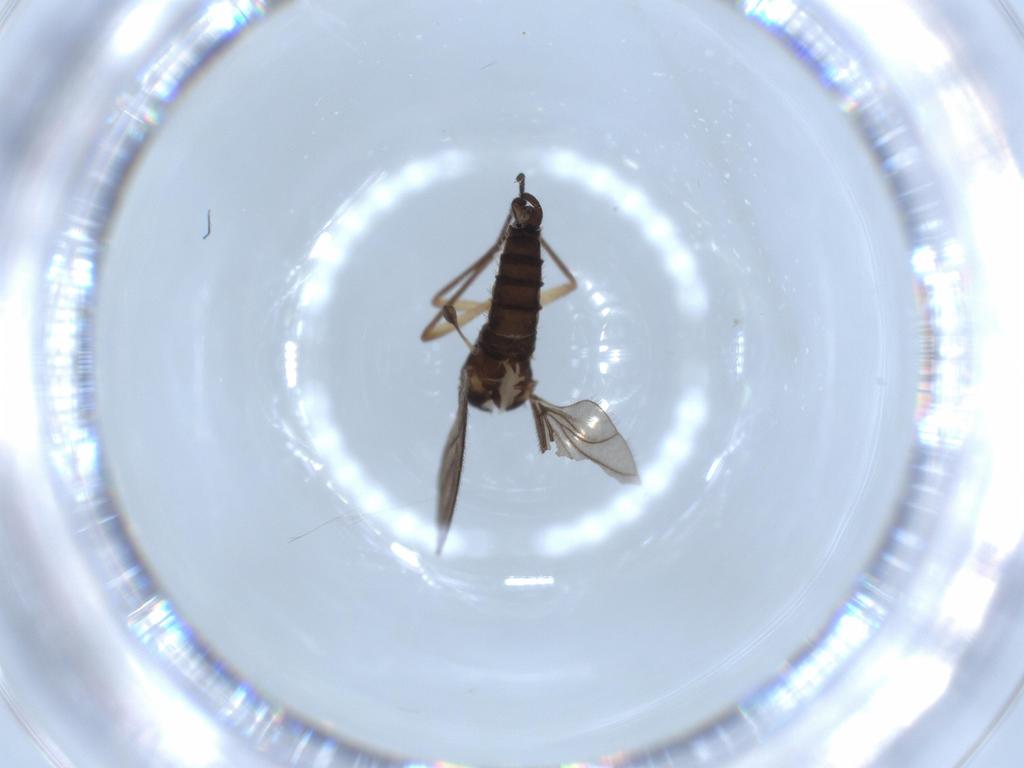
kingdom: Animalia
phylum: Arthropoda
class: Insecta
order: Diptera
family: Sciaridae
